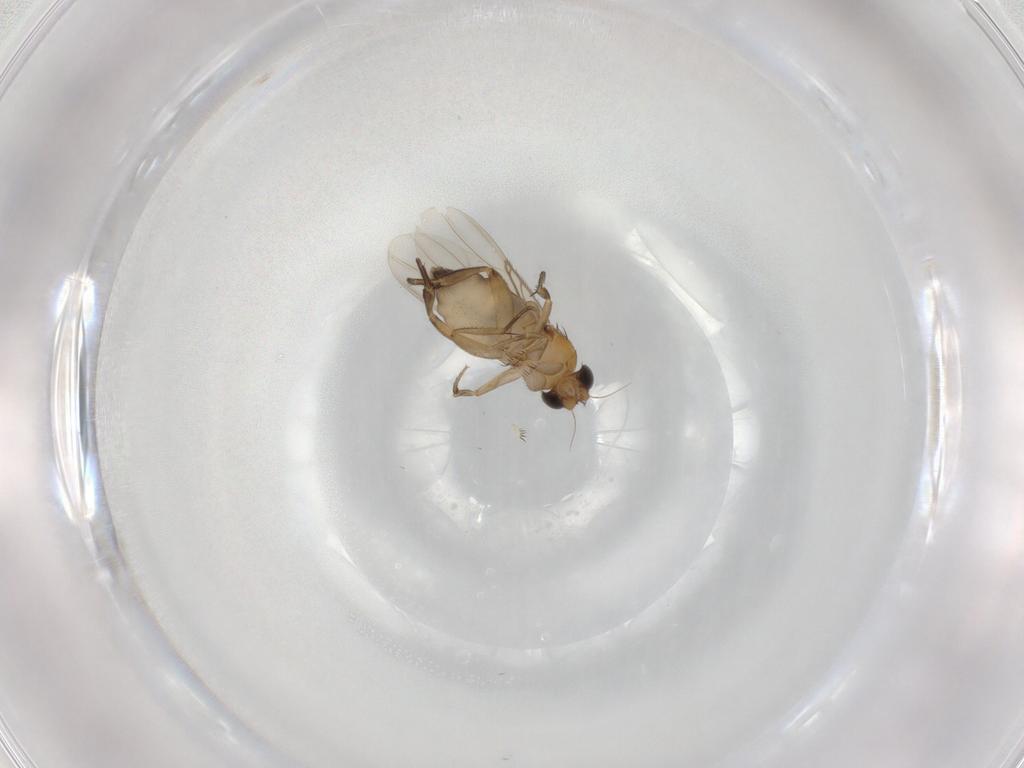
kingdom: Animalia
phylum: Arthropoda
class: Insecta
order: Diptera
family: Phoridae
